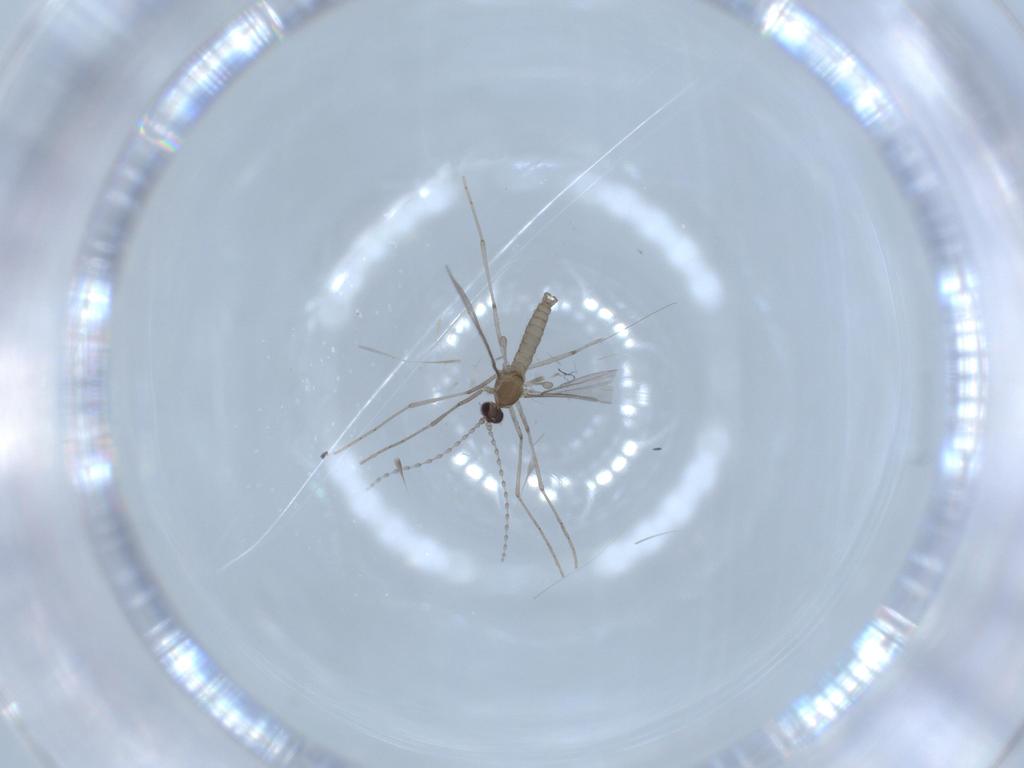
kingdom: Animalia
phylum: Arthropoda
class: Insecta
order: Diptera
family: Cecidomyiidae
